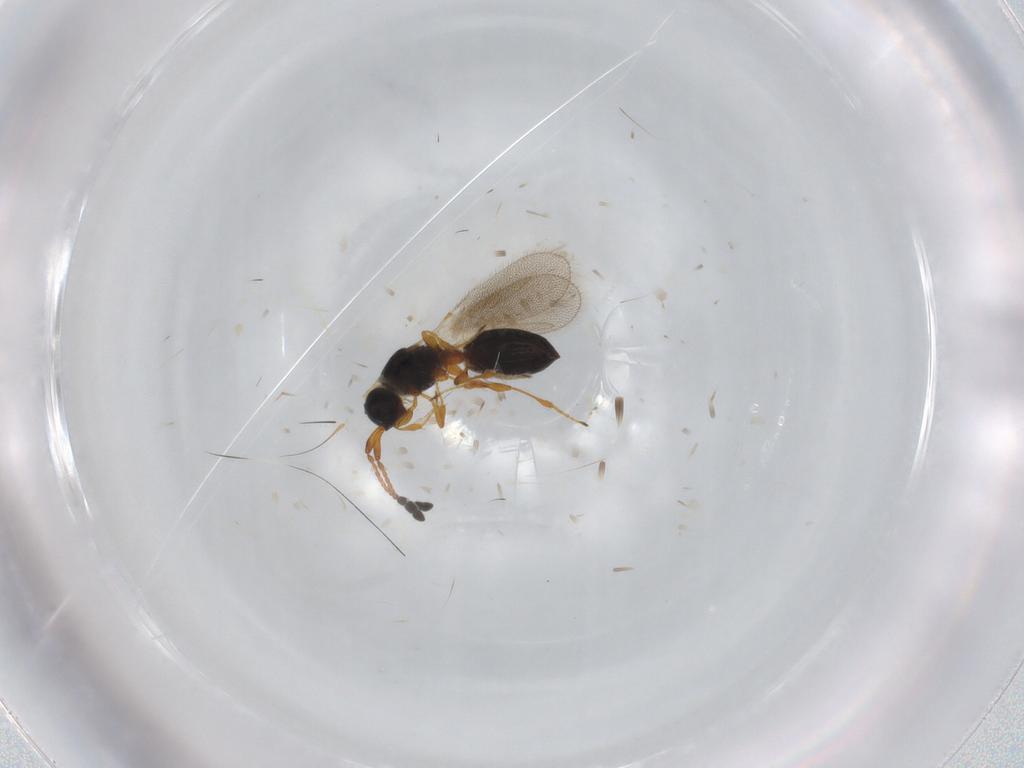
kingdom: Animalia
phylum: Arthropoda
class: Insecta
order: Hymenoptera
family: Diapriidae
